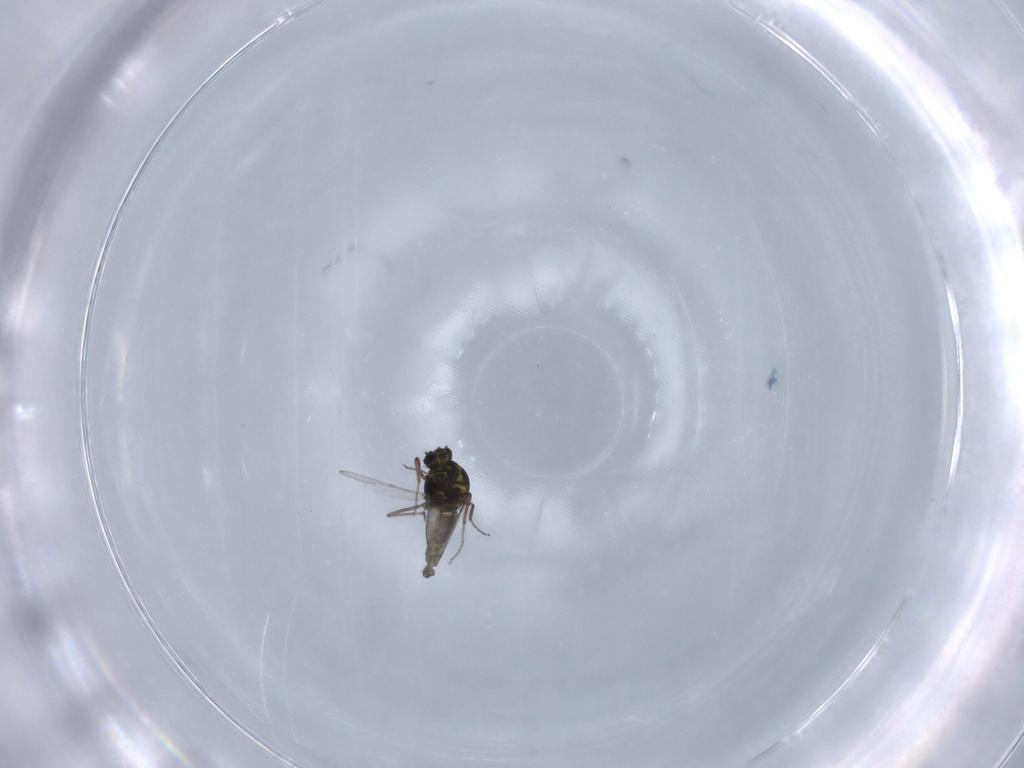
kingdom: Animalia
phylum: Arthropoda
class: Insecta
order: Diptera
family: Ceratopogonidae
